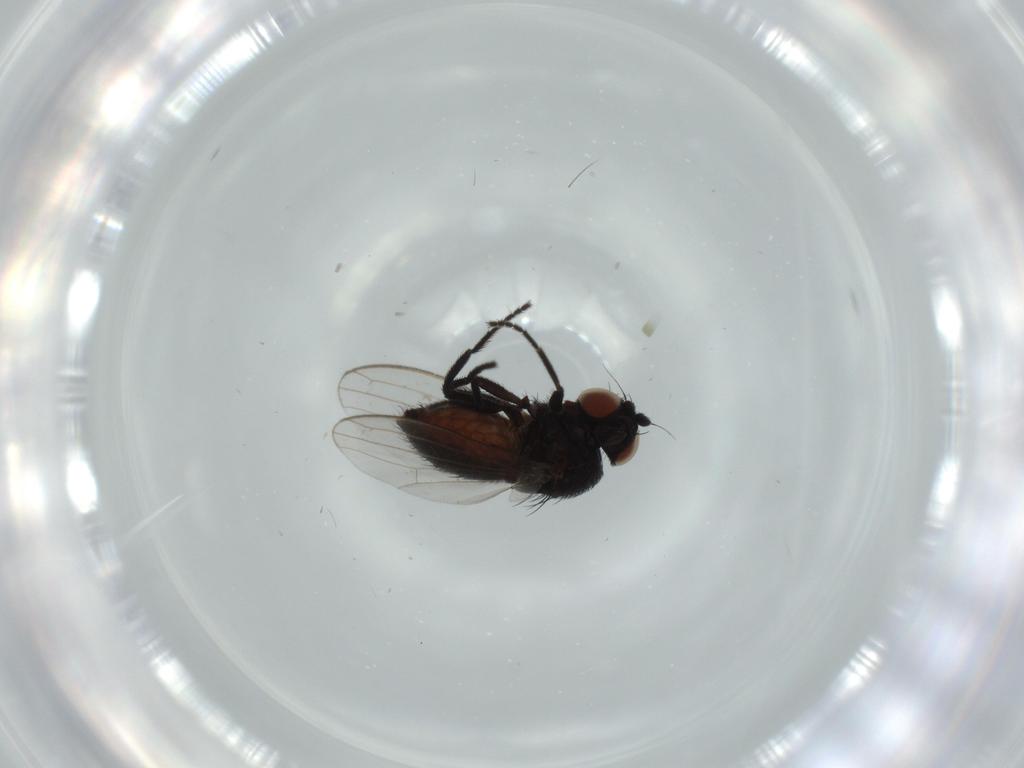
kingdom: Animalia
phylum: Arthropoda
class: Insecta
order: Diptera
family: Milichiidae
